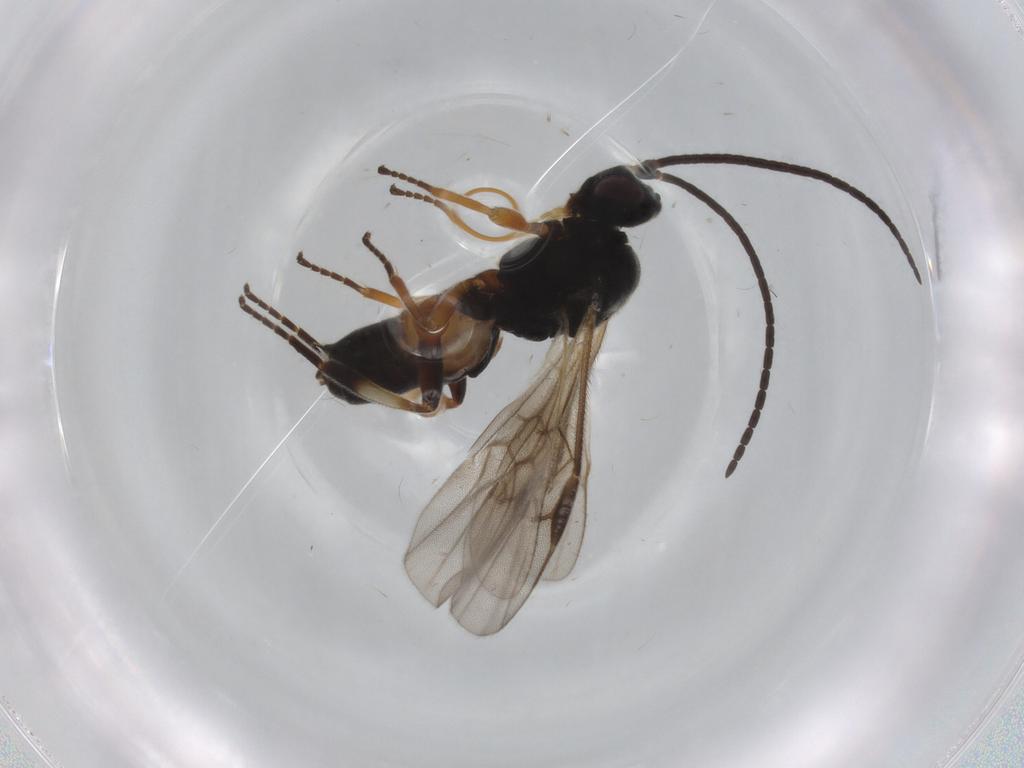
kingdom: Animalia
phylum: Arthropoda
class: Insecta
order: Hymenoptera
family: Braconidae
